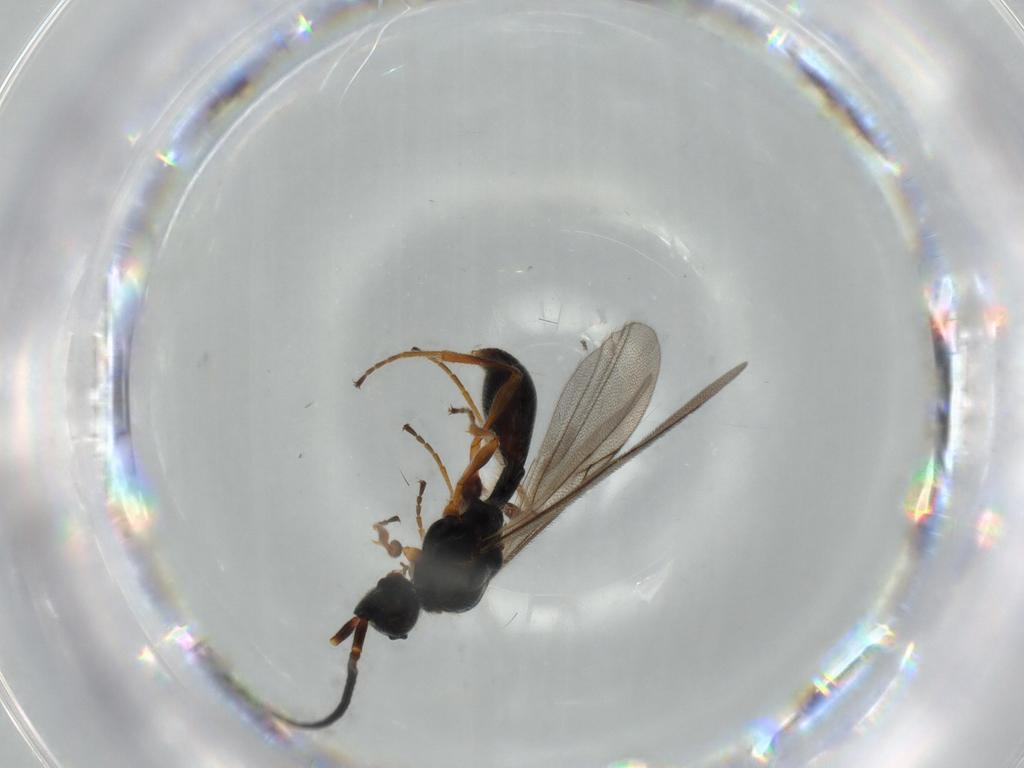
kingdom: Animalia
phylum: Arthropoda
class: Insecta
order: Hymenoptera
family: Diapriidae
